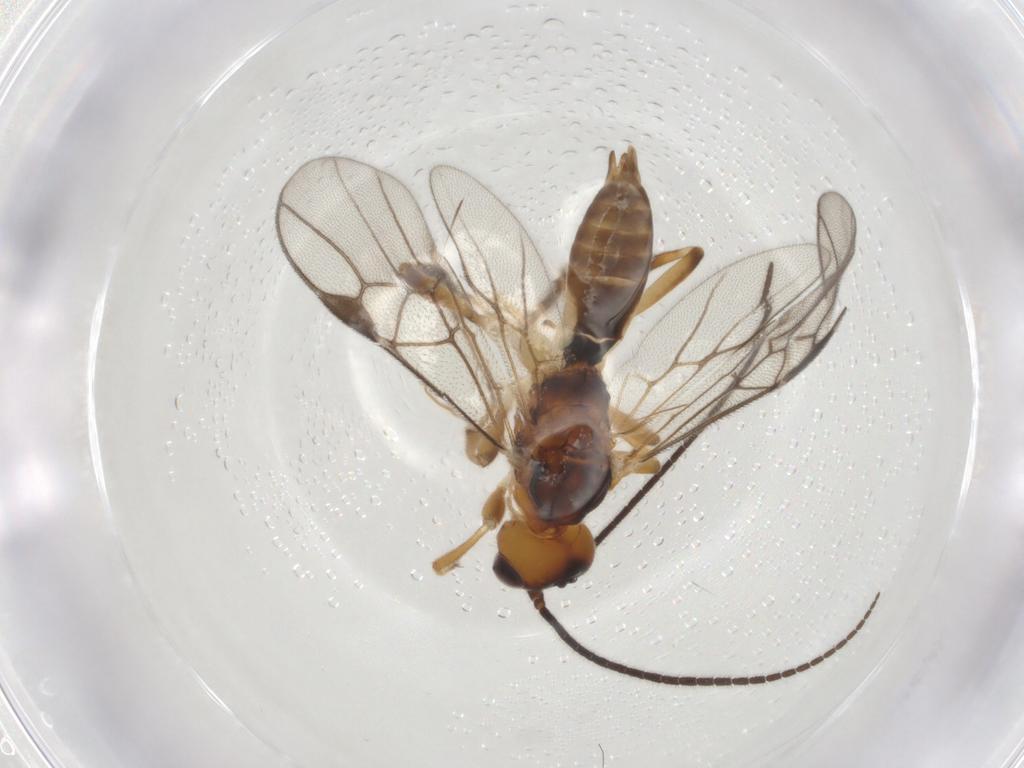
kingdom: Animalia
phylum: Arthropoda
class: Insecta
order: Hymenoptera
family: Braconidae
